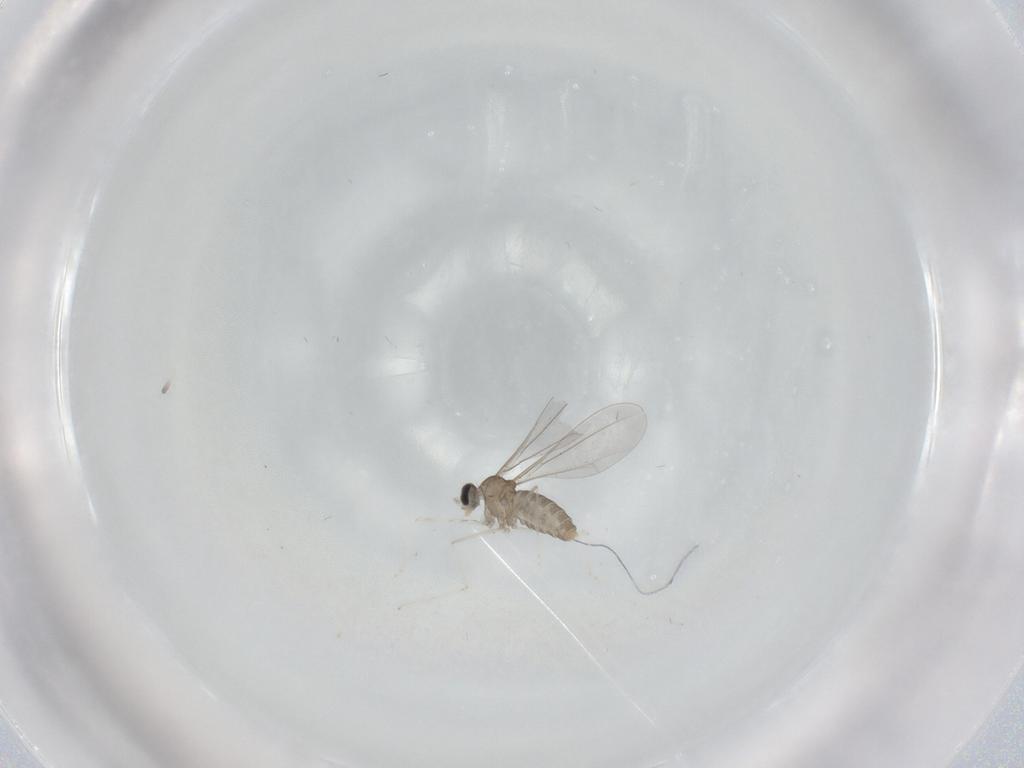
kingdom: Animalia
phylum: Arthropoda
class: Insecta
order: Diptera
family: Cecidomyiidae
